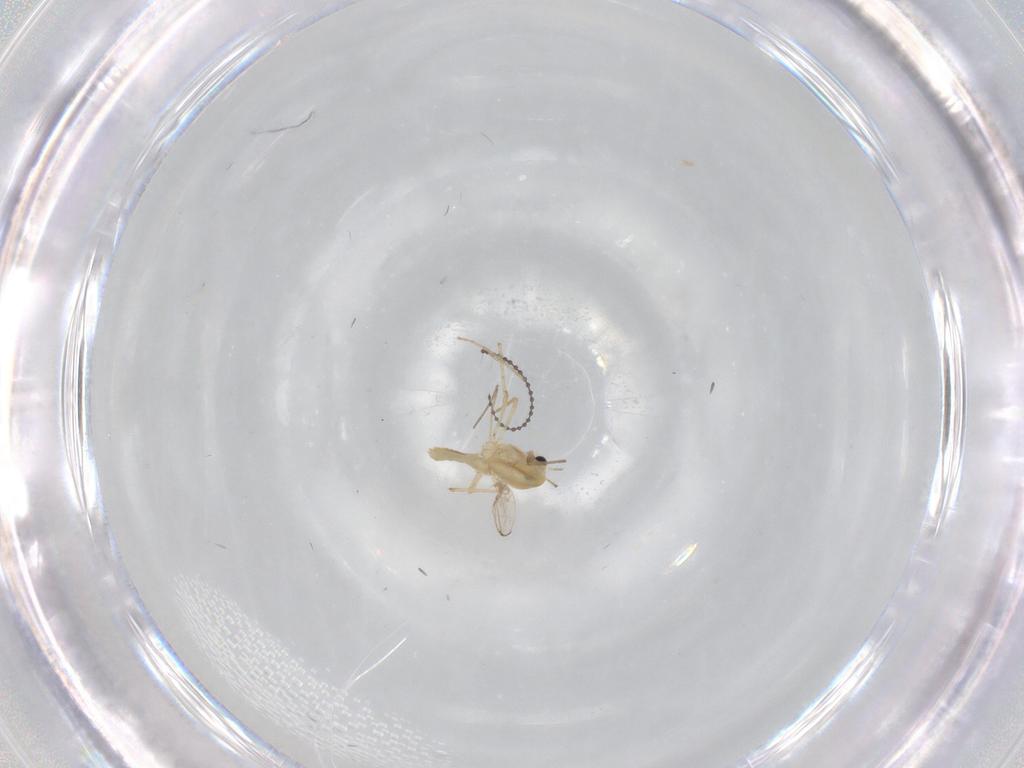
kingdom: Animalia
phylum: Arthropoda
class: Insecta
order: Diptera
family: Chironomidae
